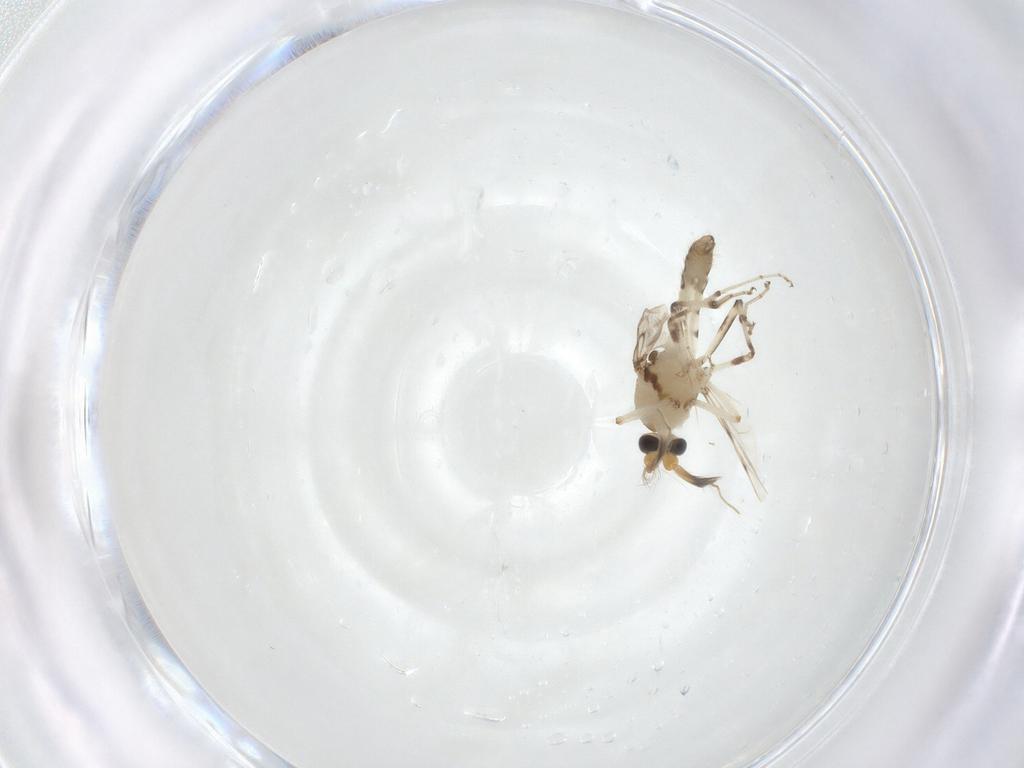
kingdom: Animalia
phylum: Arthropoda
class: Insecta
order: Diptera
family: Ceratopogonidae
